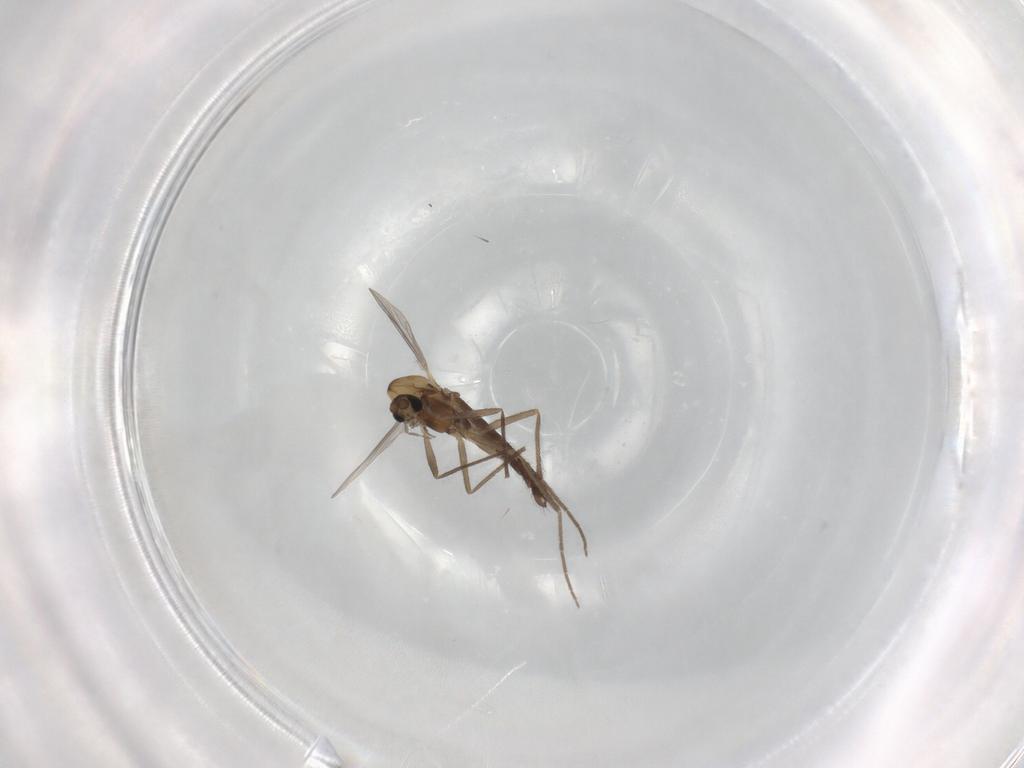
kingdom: Animalia
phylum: Arthropoda
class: Insecta
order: Diptera
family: Chironomidae
